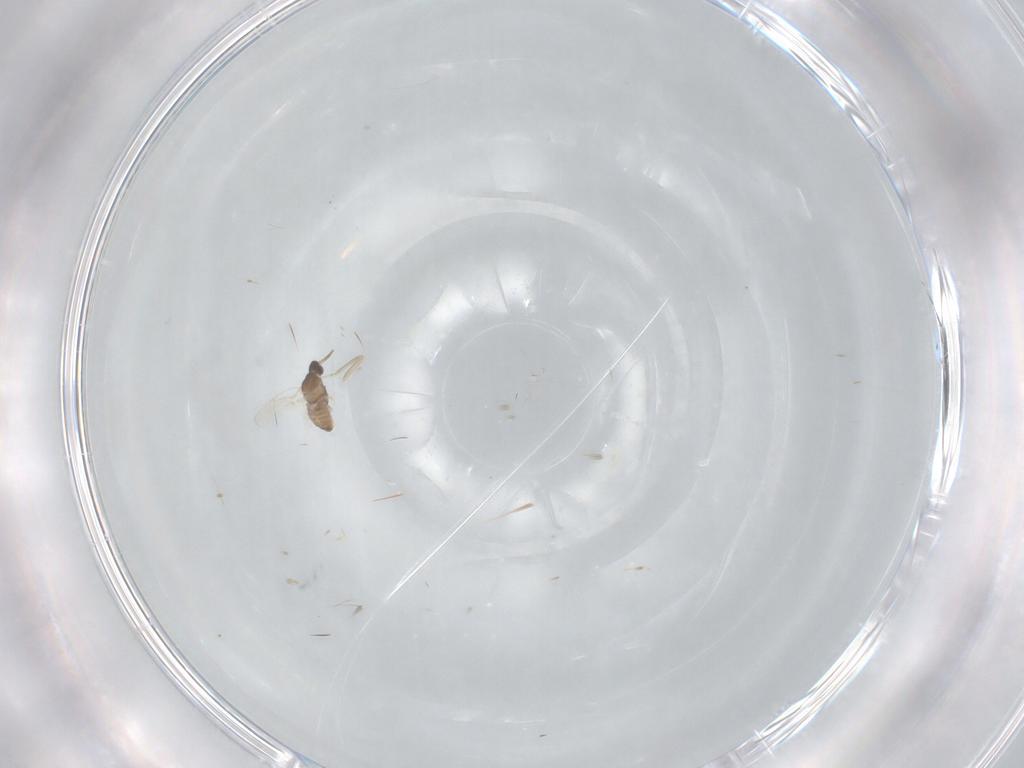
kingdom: Animalia
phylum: Arthropoda
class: Insecta
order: Diptera
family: Cecidomyiidae
